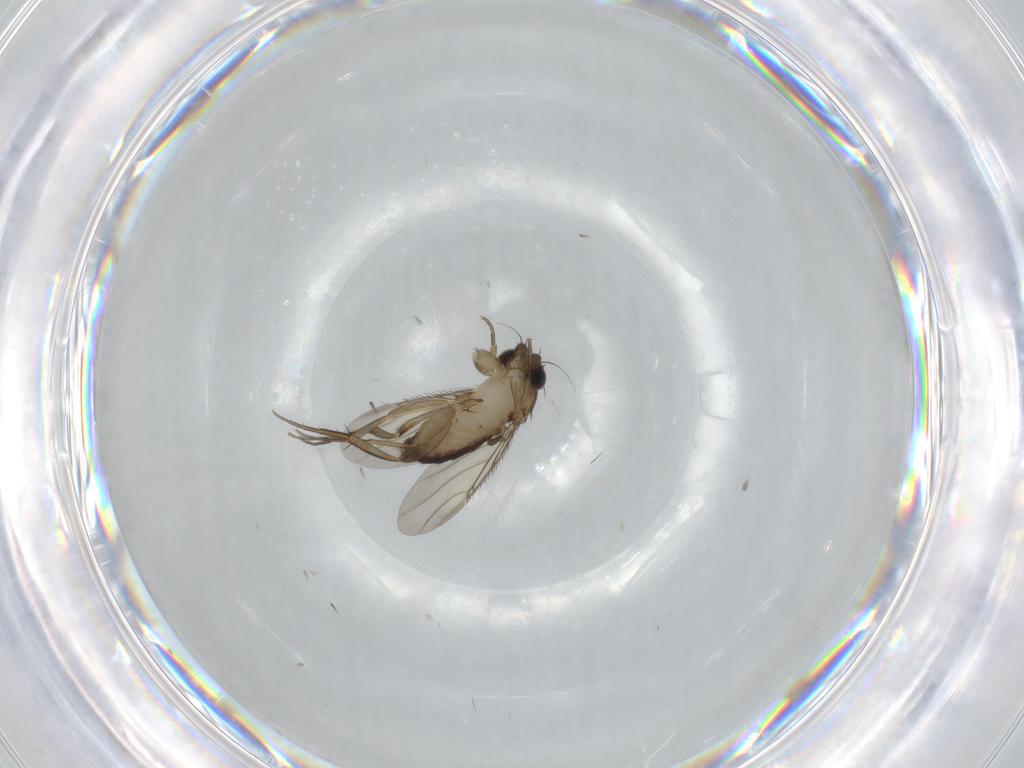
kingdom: Animalia
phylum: Arthropoda
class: Insecta
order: Diptera
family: Phoridae
